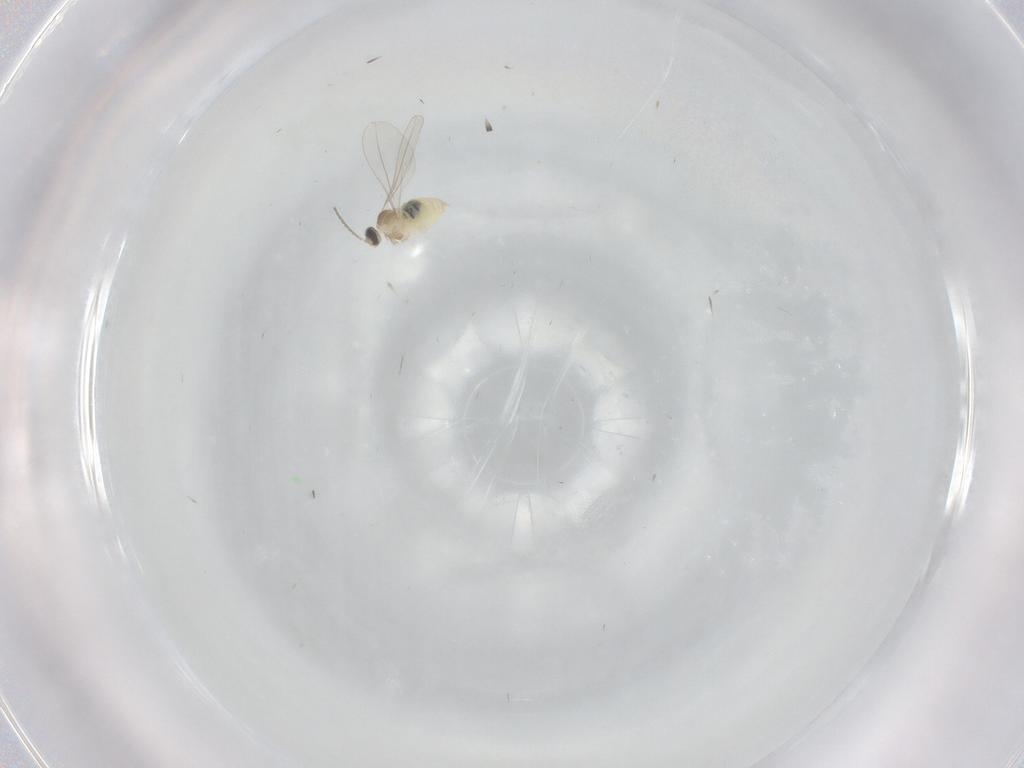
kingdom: Animalia
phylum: Arthropoda
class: Insecta
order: Diptera
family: Cecidomyiidae
